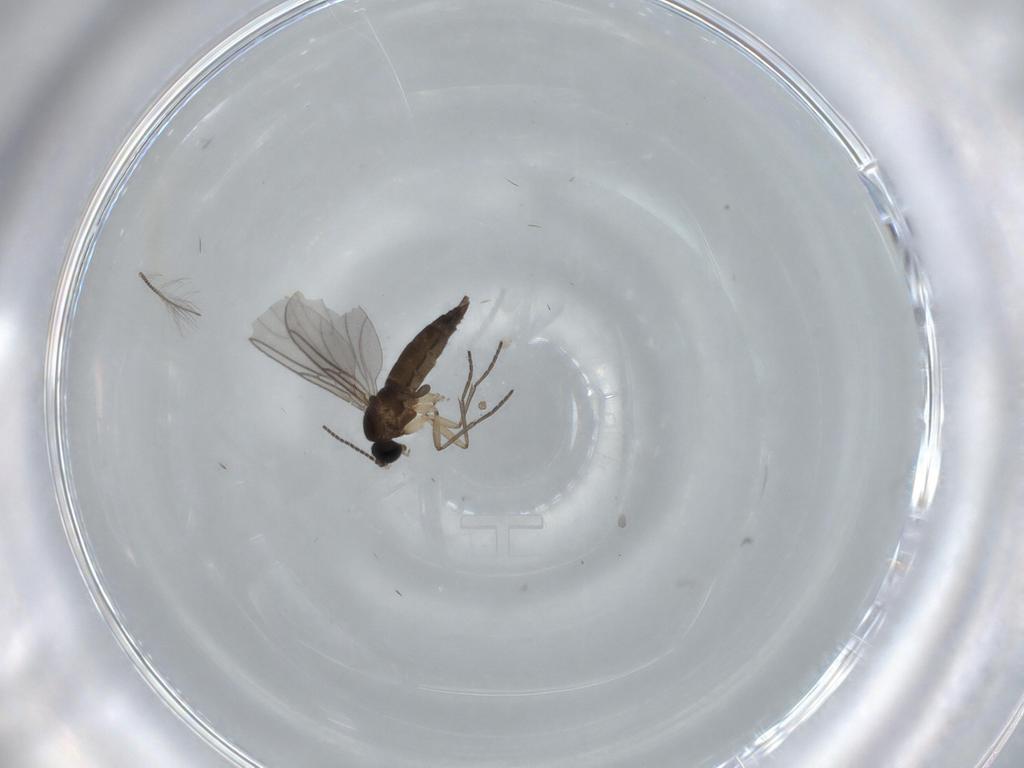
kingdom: Animalia
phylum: Arthropoda
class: Insecta
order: Diptera
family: Sciaridae
